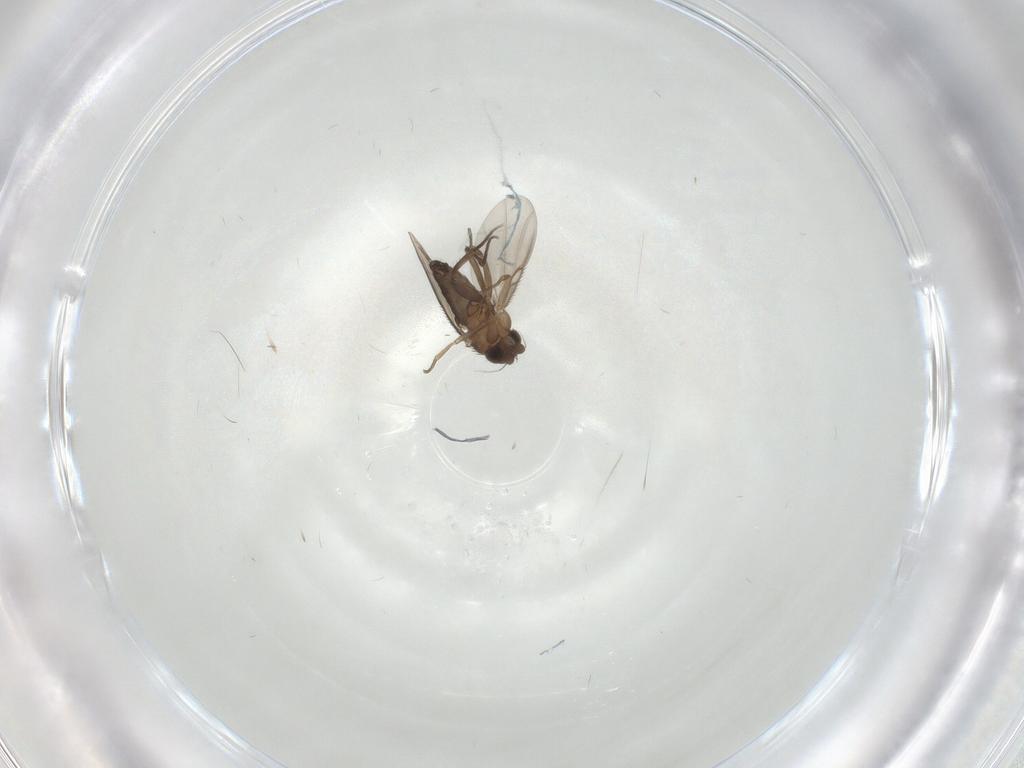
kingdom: Animalia
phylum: Arthropoda
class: Insecta
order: Diptera
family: Phoridae
